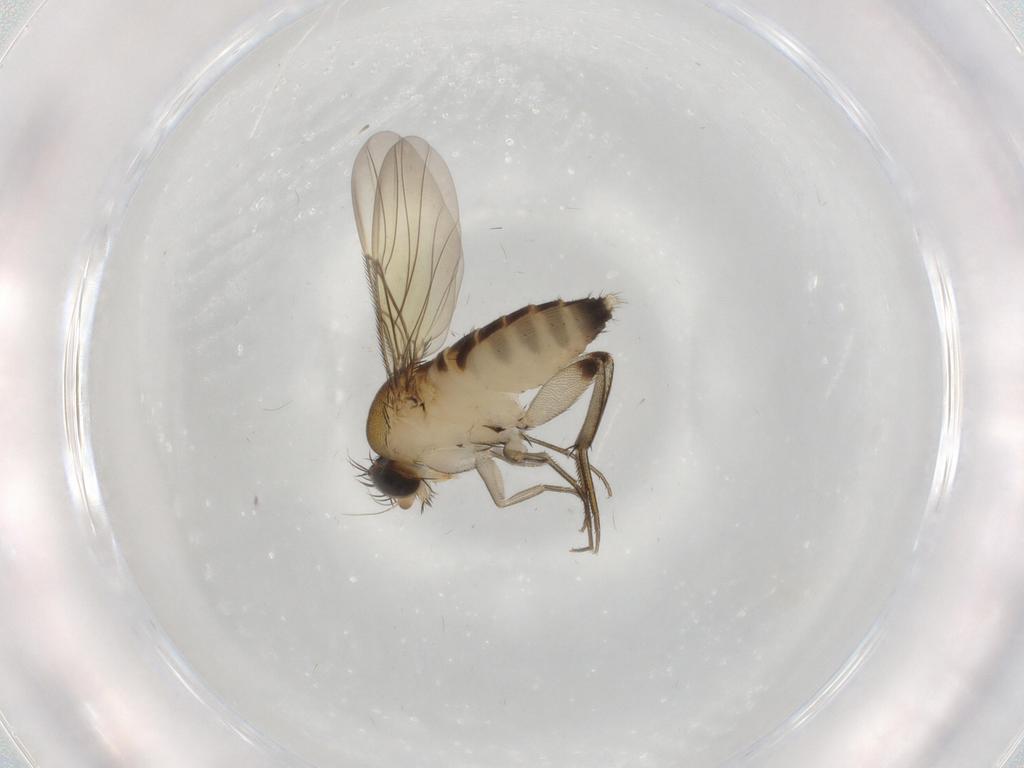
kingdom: Animalia
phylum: Arthropoda
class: Insecta
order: Diptera
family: Phoridae
